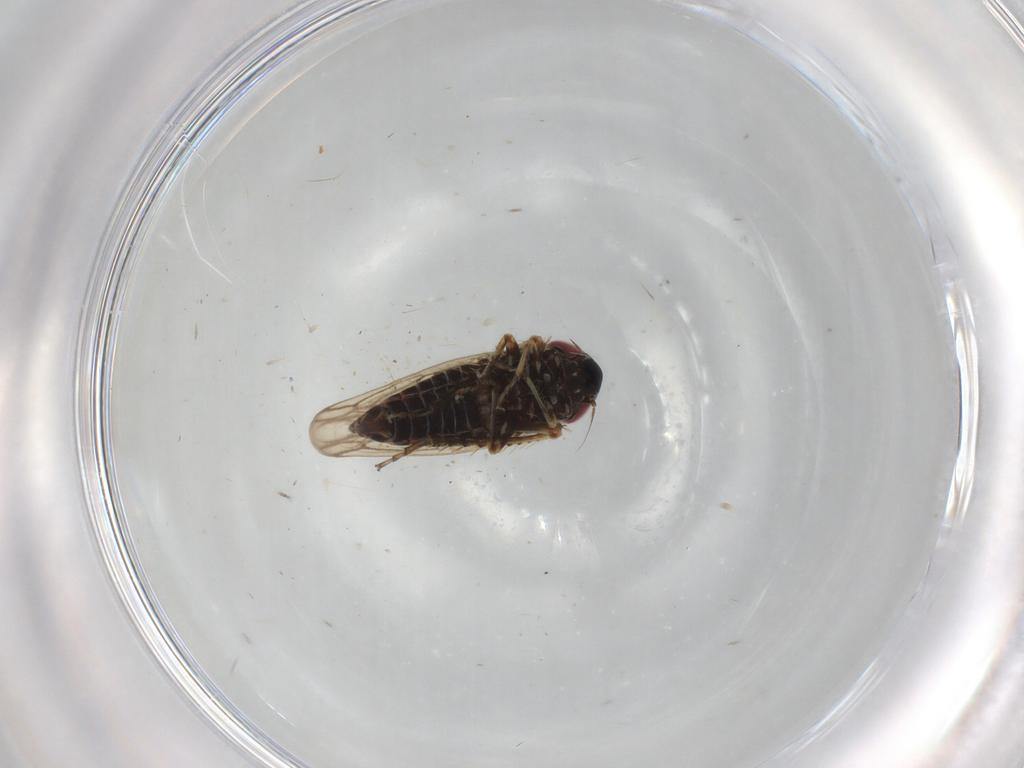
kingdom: Animalia
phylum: Arthropoda
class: Insecta
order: Hemiptera
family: Cicadellidae
